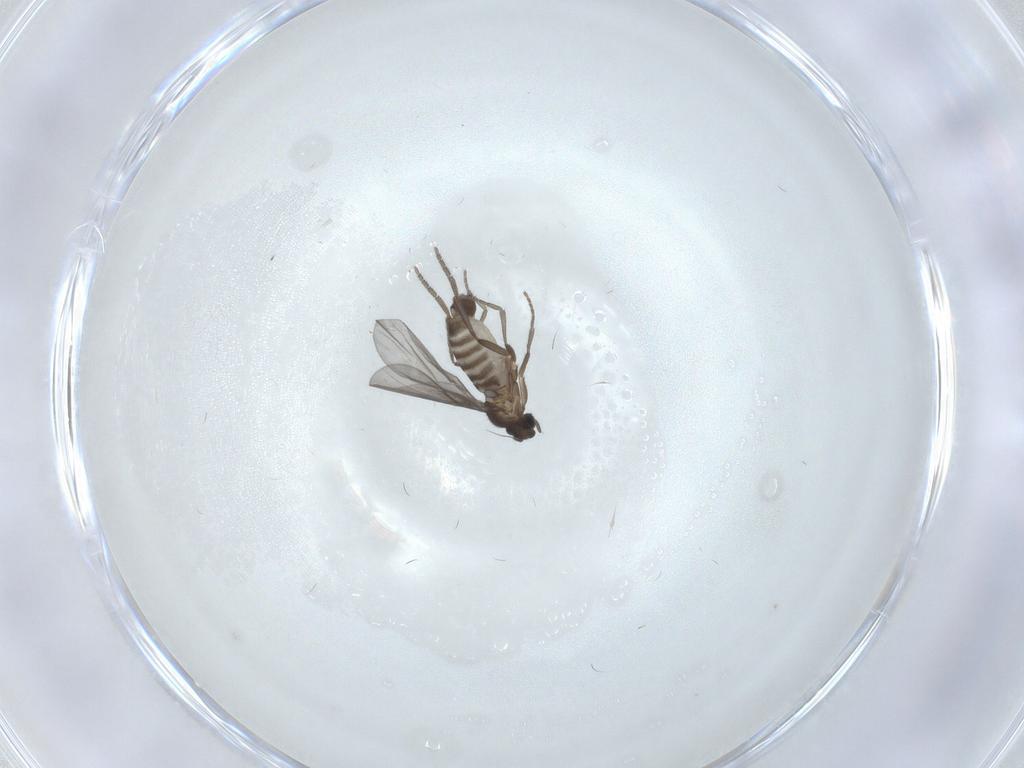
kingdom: Animalia
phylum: Arthropoda
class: Insecta
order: Diptera
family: Phoridae
